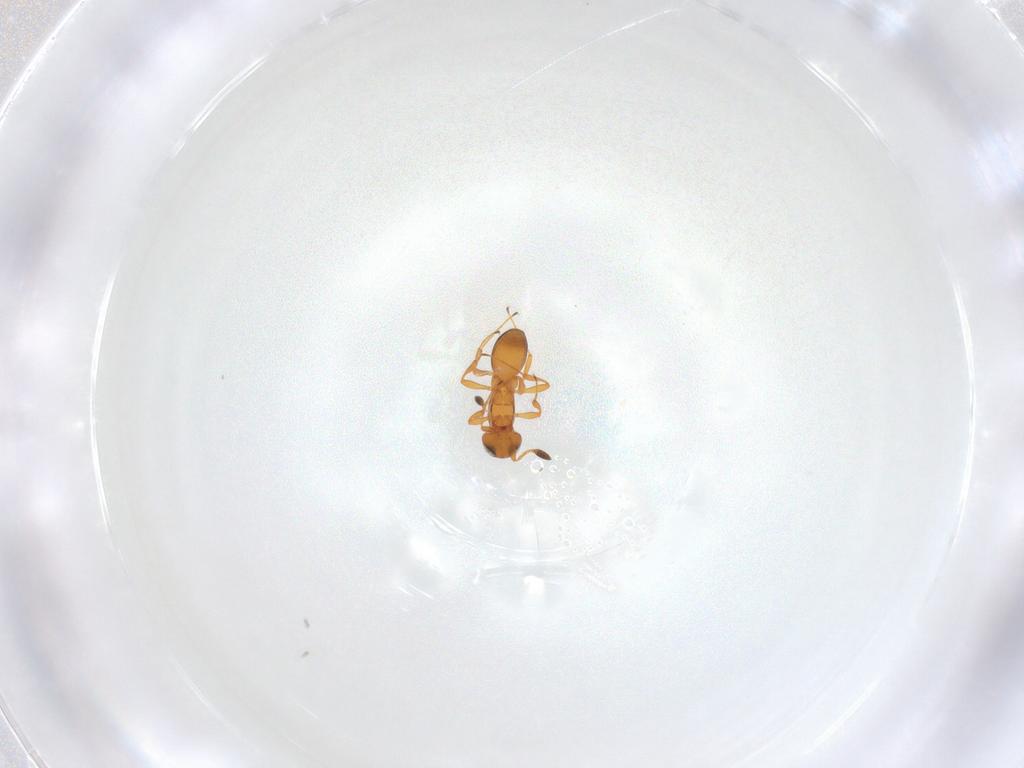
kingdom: Animalia
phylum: Arthropoda
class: Insecta
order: Hymenoptera
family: Platygastridae
